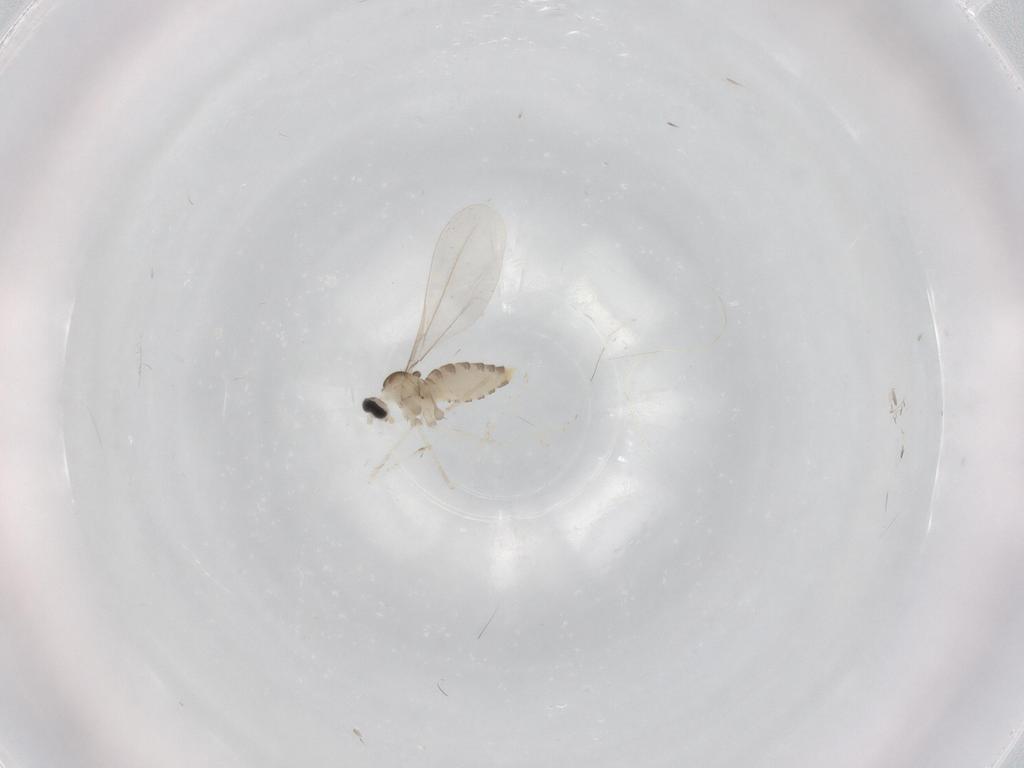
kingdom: Animalia
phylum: Arthropoda
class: Insecta
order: Diptera
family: Cecidomyiidae
